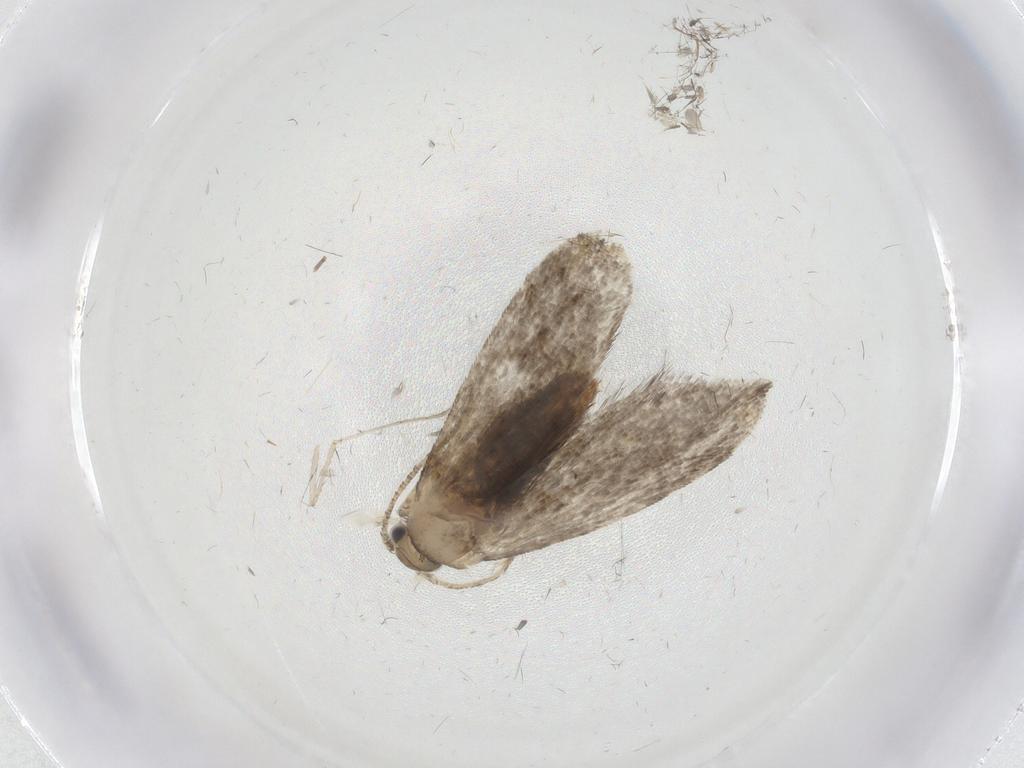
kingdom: Animalia
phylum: Arthropoda
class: Insecta
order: Lepidoptera
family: Tineidae
